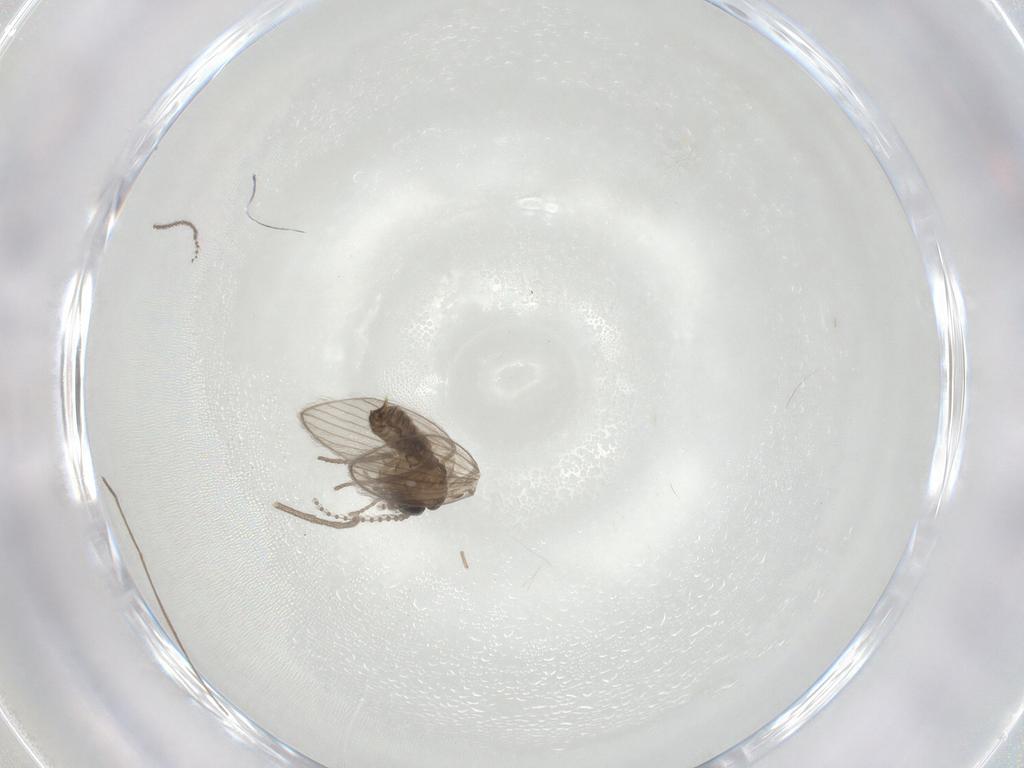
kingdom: Animalia
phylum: Arthropoda
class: Insecta
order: Diptera
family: Psychodidae
